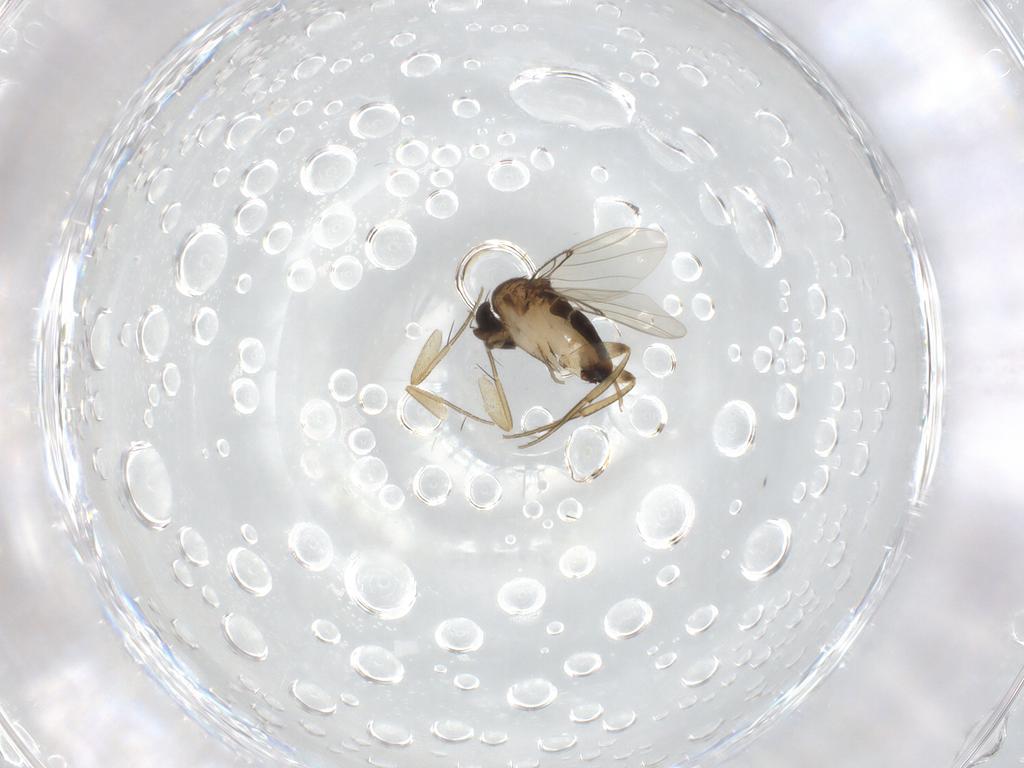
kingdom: Animalia
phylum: Arthropoda
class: Insecta
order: Diptera
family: Phoridae
